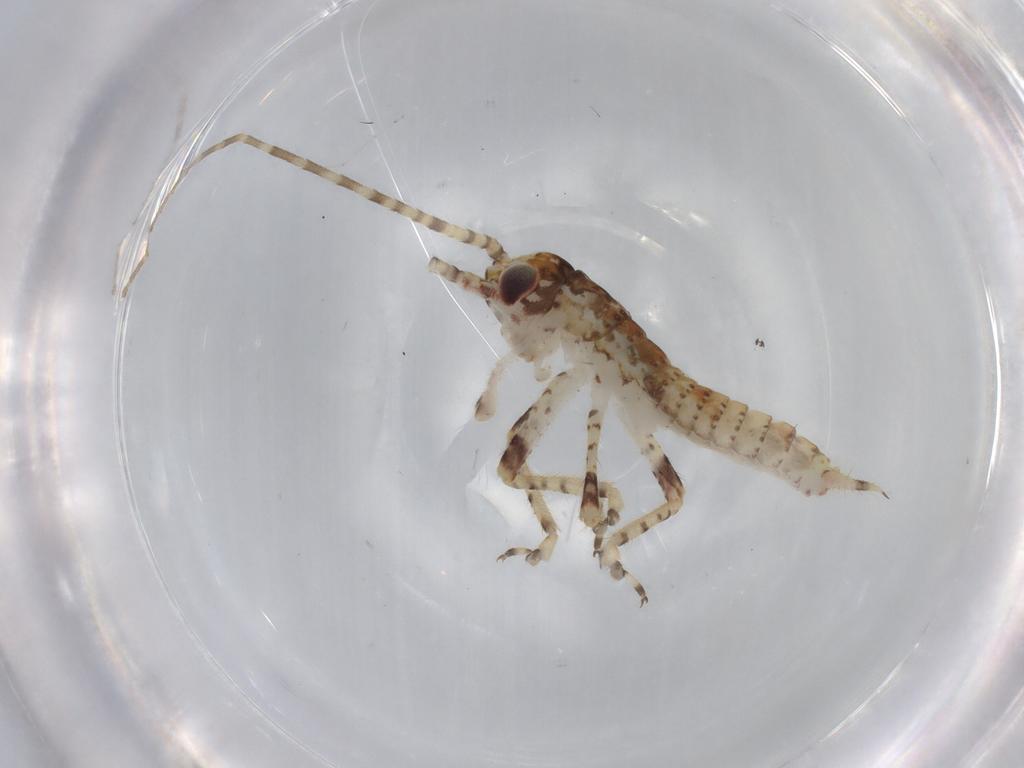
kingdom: Animalia
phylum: Arthropoda
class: Insecta
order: Orthoptera
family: Gryllidae
